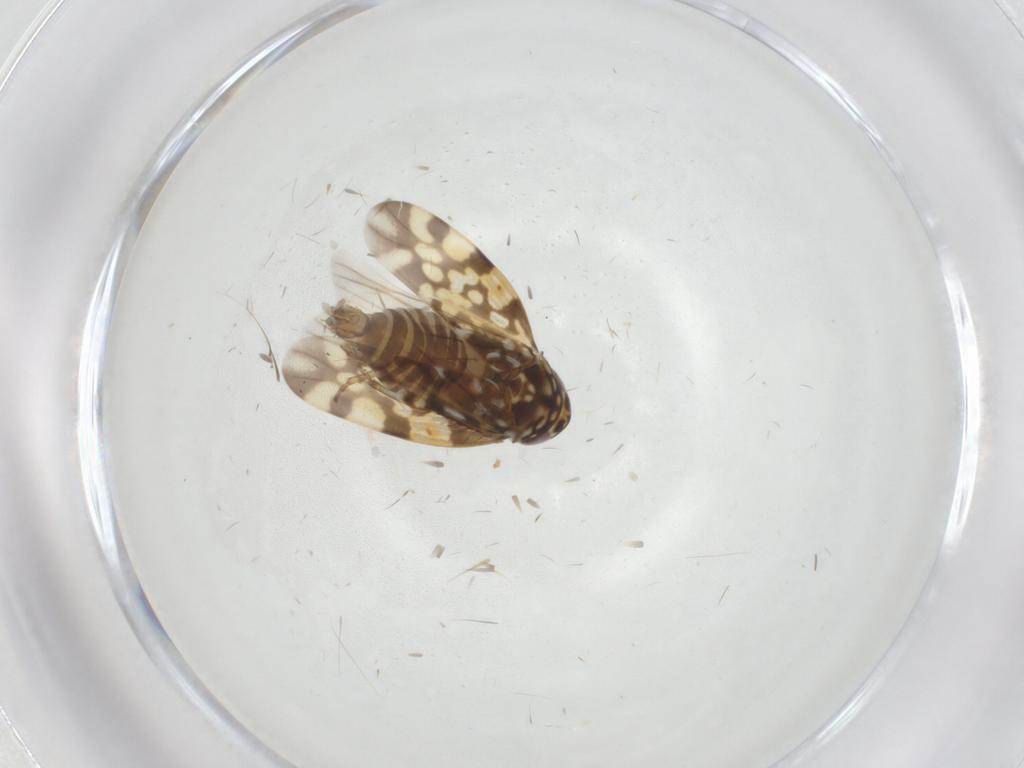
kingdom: Animalia
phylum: Arthropoda
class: Insecta
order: Hemiptera
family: Cicadellidae
